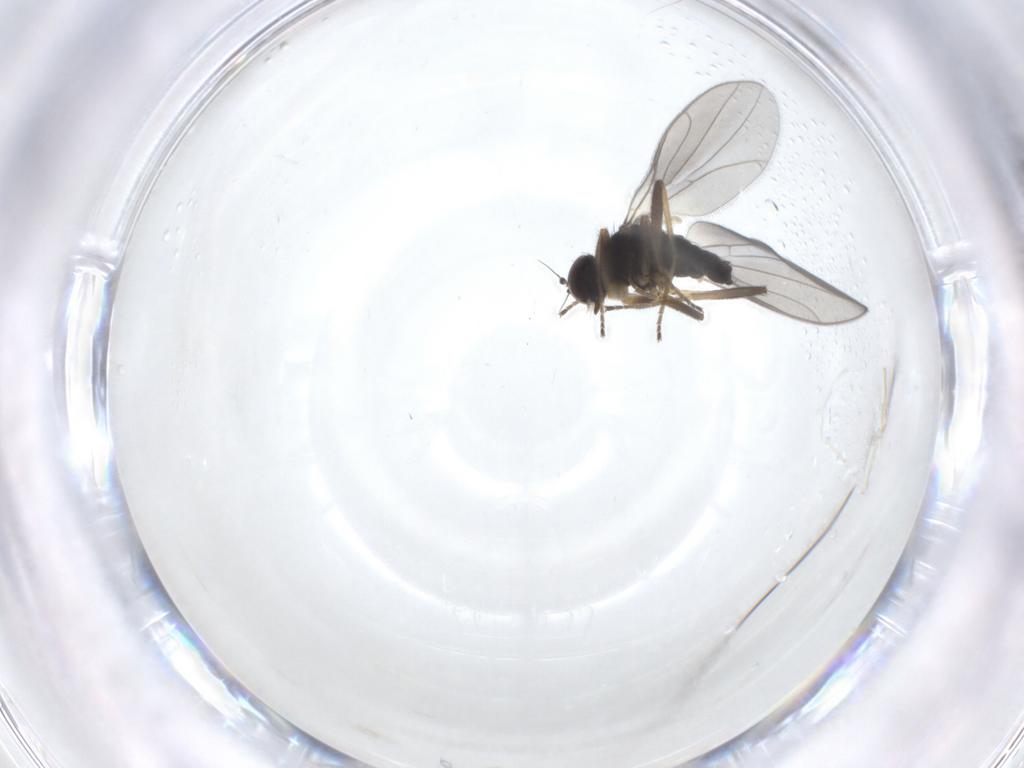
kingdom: Animalia
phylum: Arthropoda
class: Insecta
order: Diptera
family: Hybotidae
